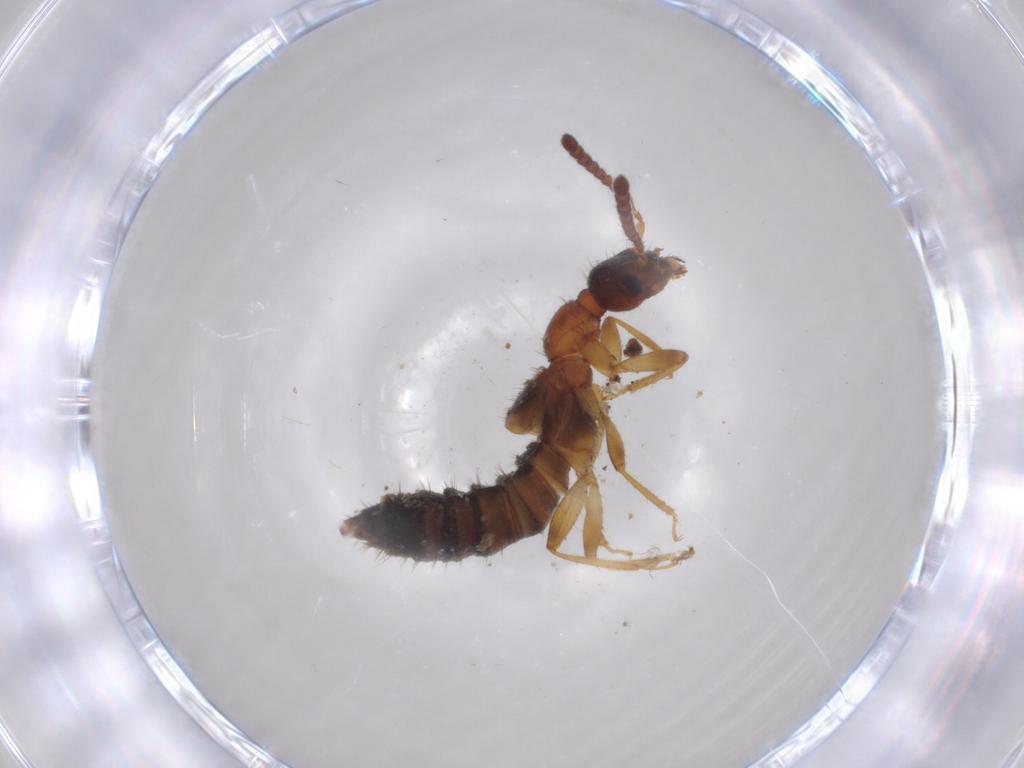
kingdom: Animalia
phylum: Arthropoda
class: Insecta
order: Coleoptera
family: Staphylinidae
